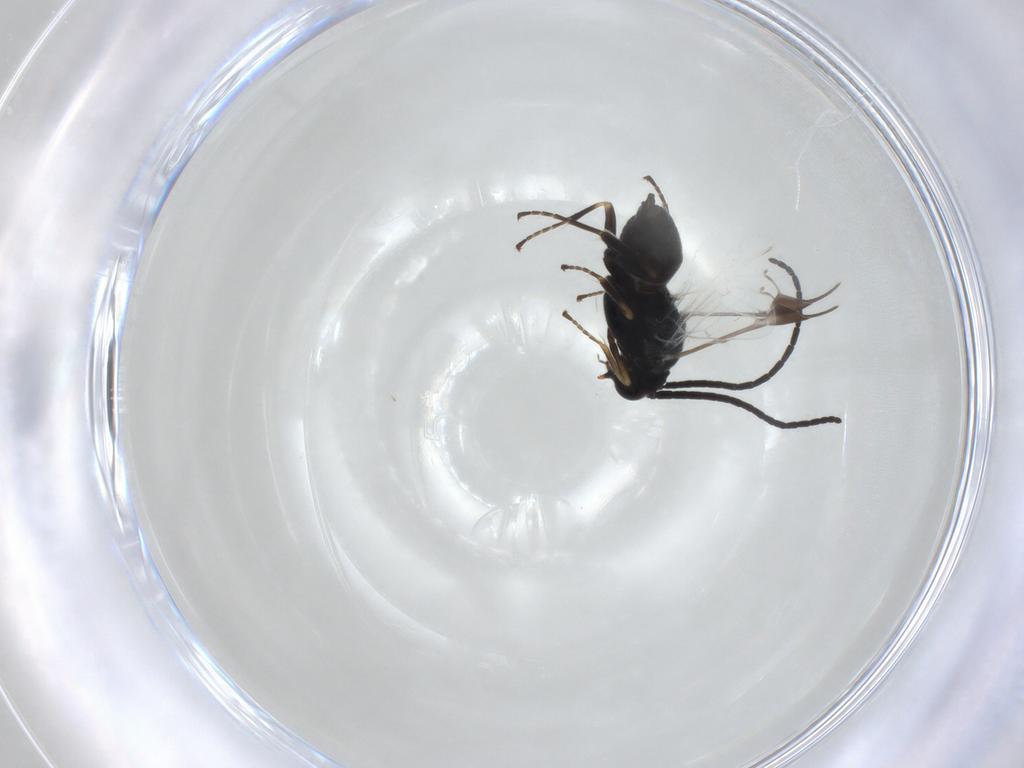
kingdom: Animalia
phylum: Arthropoda
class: Insecta
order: Hymenoptera
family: Braconidae
